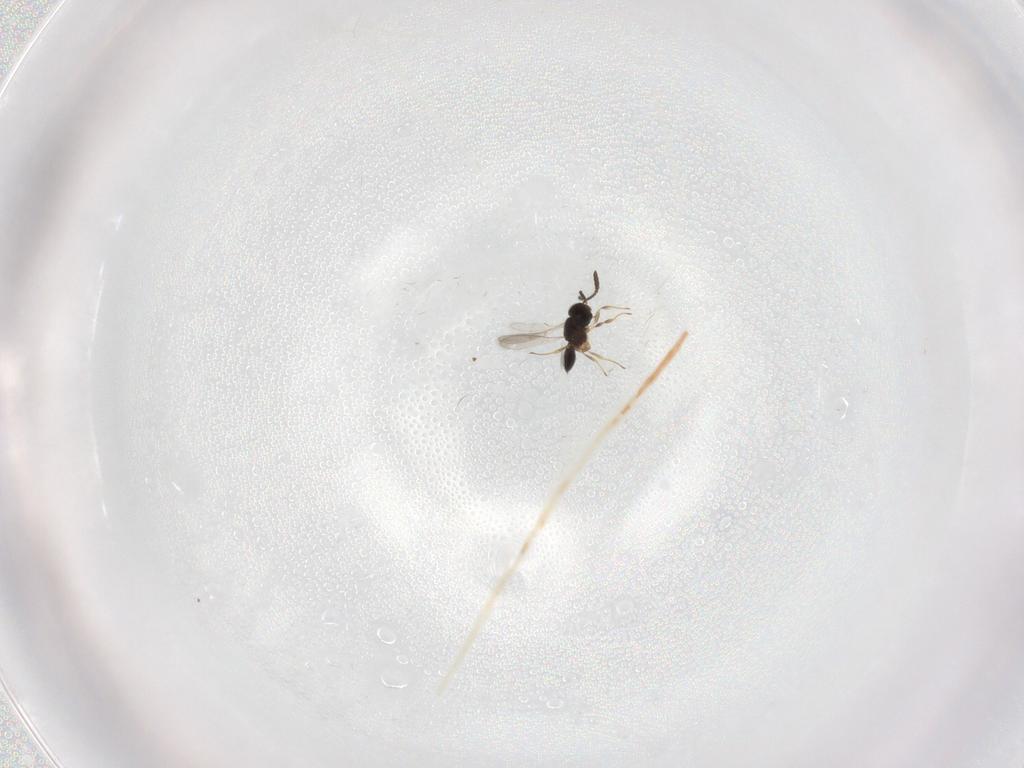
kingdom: Animalia
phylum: Arthropoda
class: Insecta
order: Hymenoptera
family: Scelionidae
